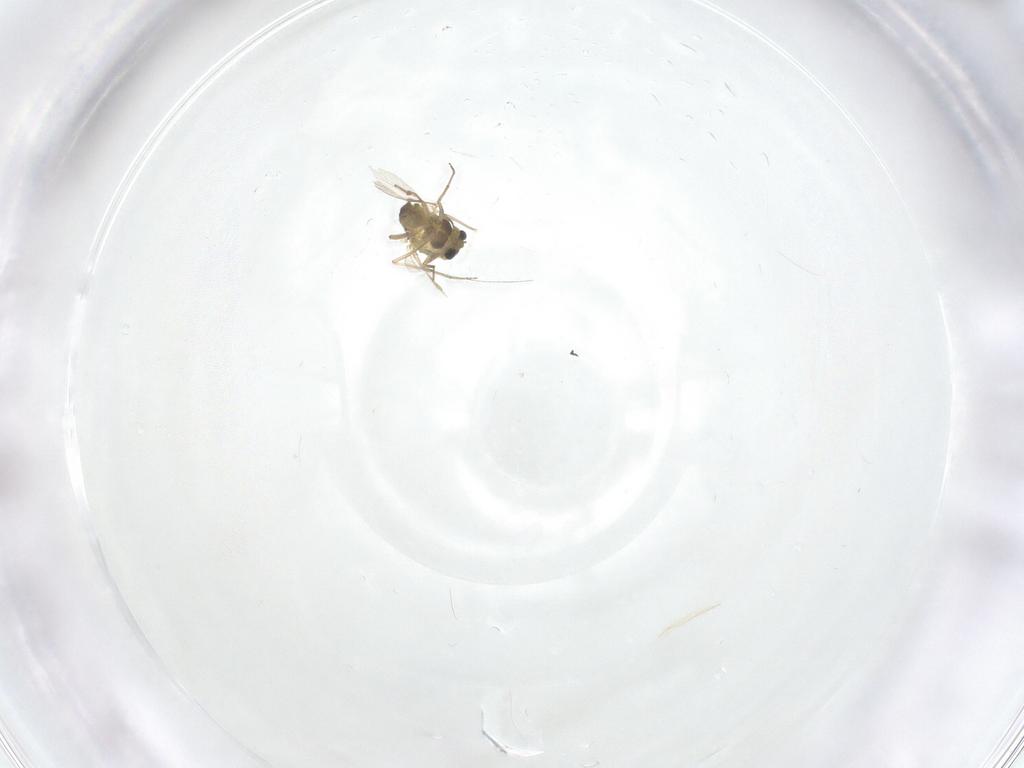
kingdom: Animalia
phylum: Arthropoda
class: Insecta
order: Diptera
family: Chironomidae
